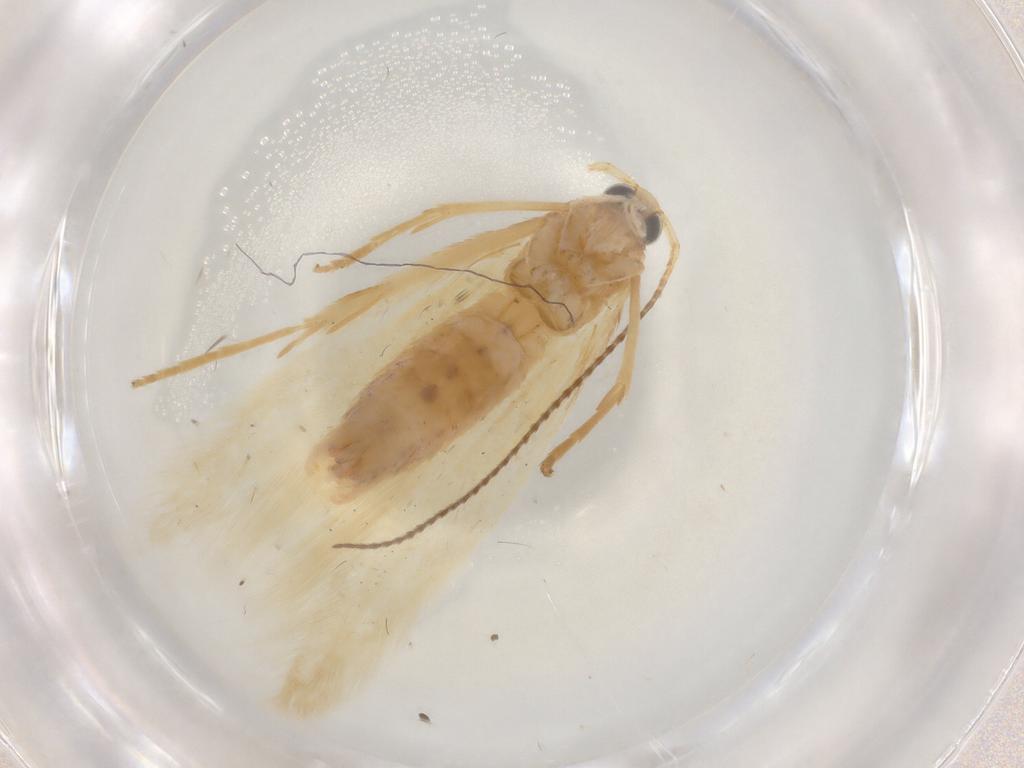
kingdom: Animalia
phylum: Arthropoda
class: Insecta
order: Lepidoptera
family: Coleophoridae
